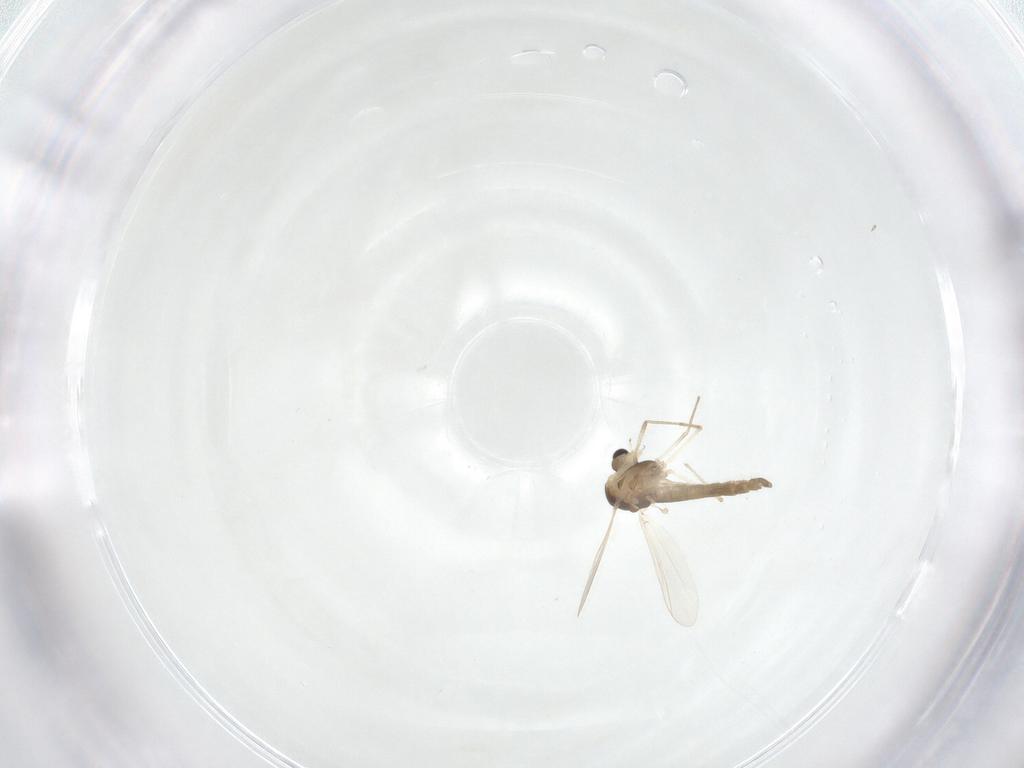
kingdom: Animalia
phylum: Arthropoda
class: Insecta
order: Diptera
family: Chironomidae
